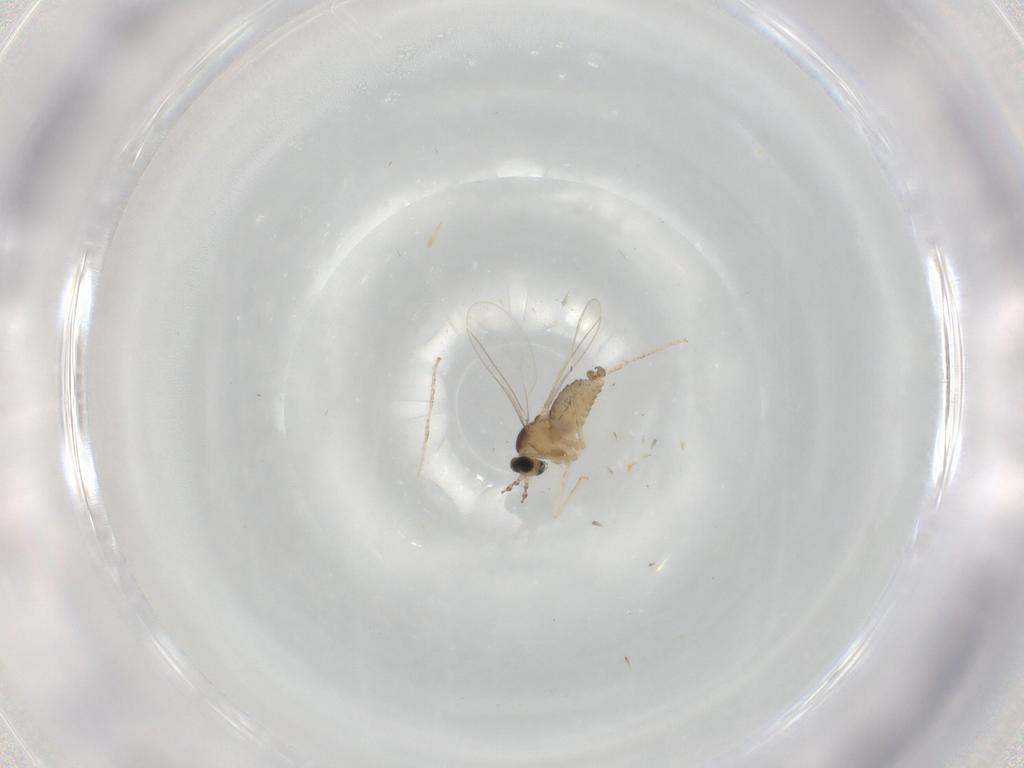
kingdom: Animalia
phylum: Arthropoda
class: Insecta
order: Diptera
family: Cecidomyiidae
